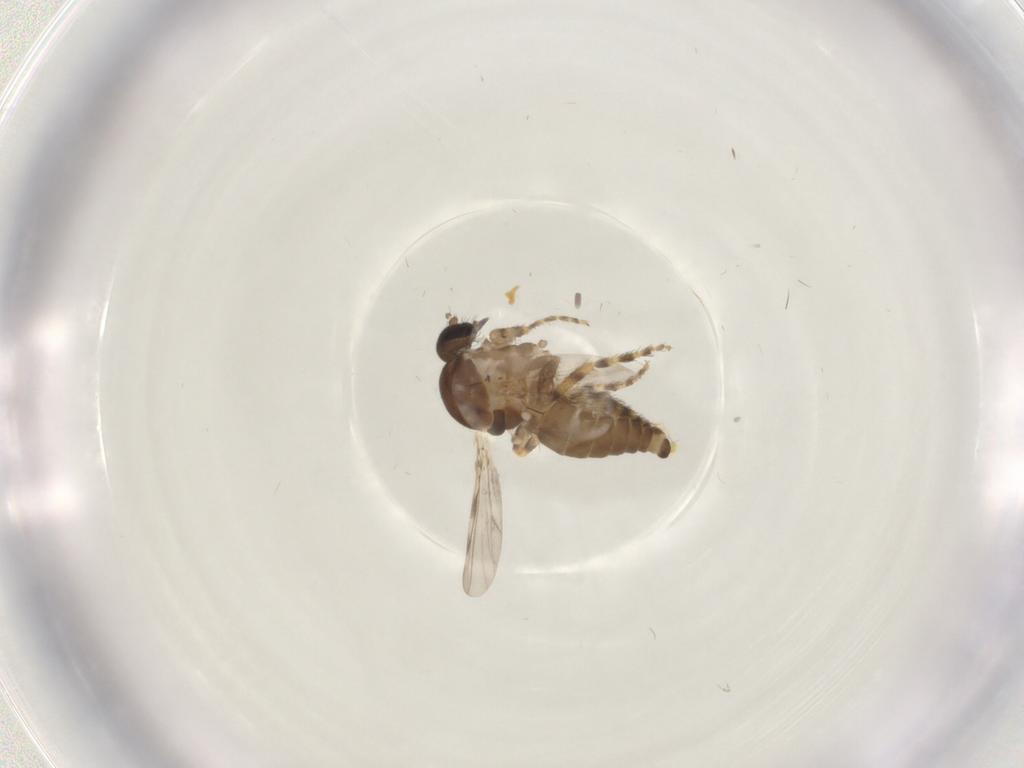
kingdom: Animalia
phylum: Arthropoda
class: Insecta
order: Diptera
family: Ceratopogonidae
